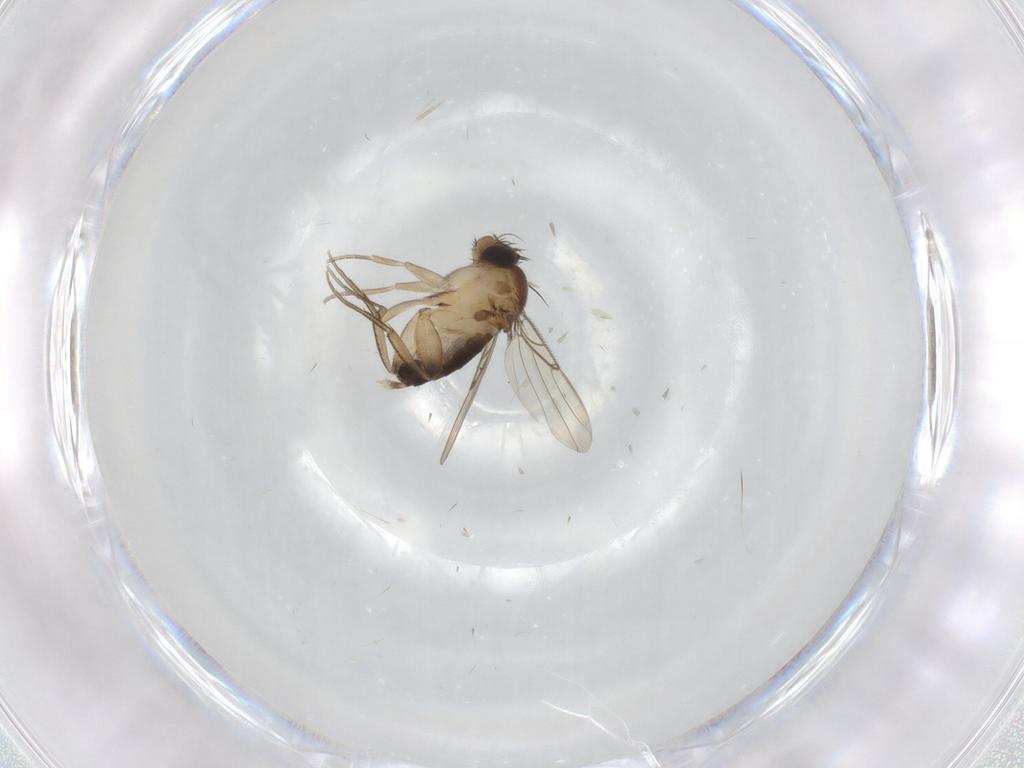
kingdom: Animalia
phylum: Arthropoda
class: Insecta
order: Diptera
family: Phoridae
